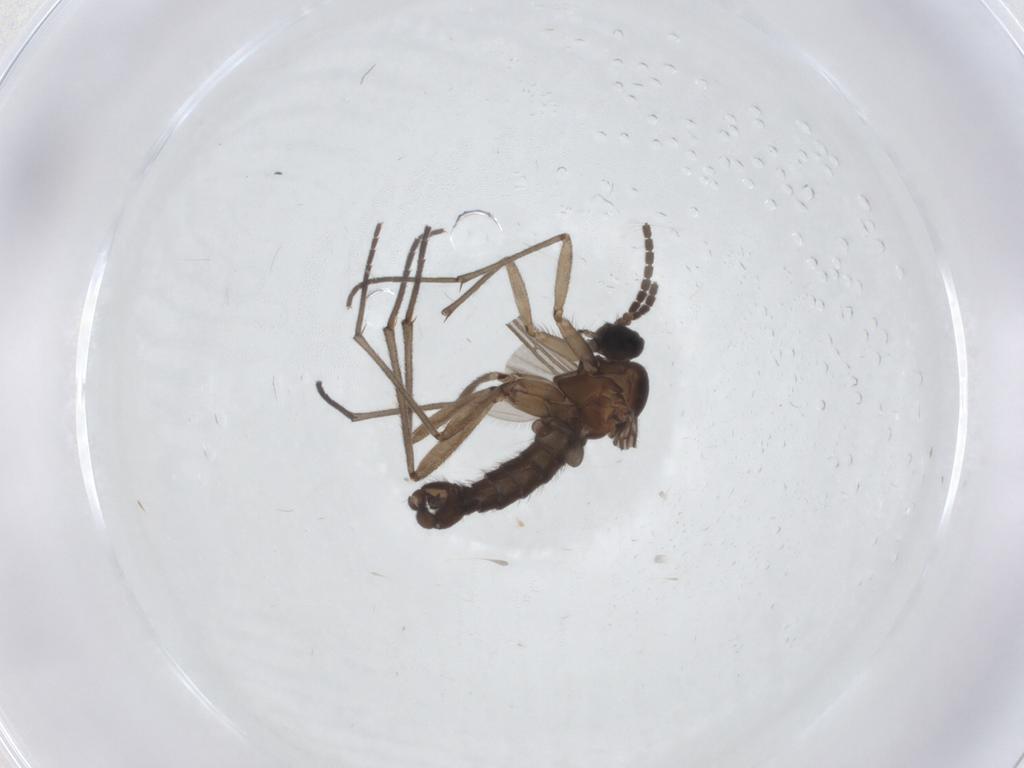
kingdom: Animalia
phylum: Arthropoda
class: Insecta
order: Diptera
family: Sciaridae
